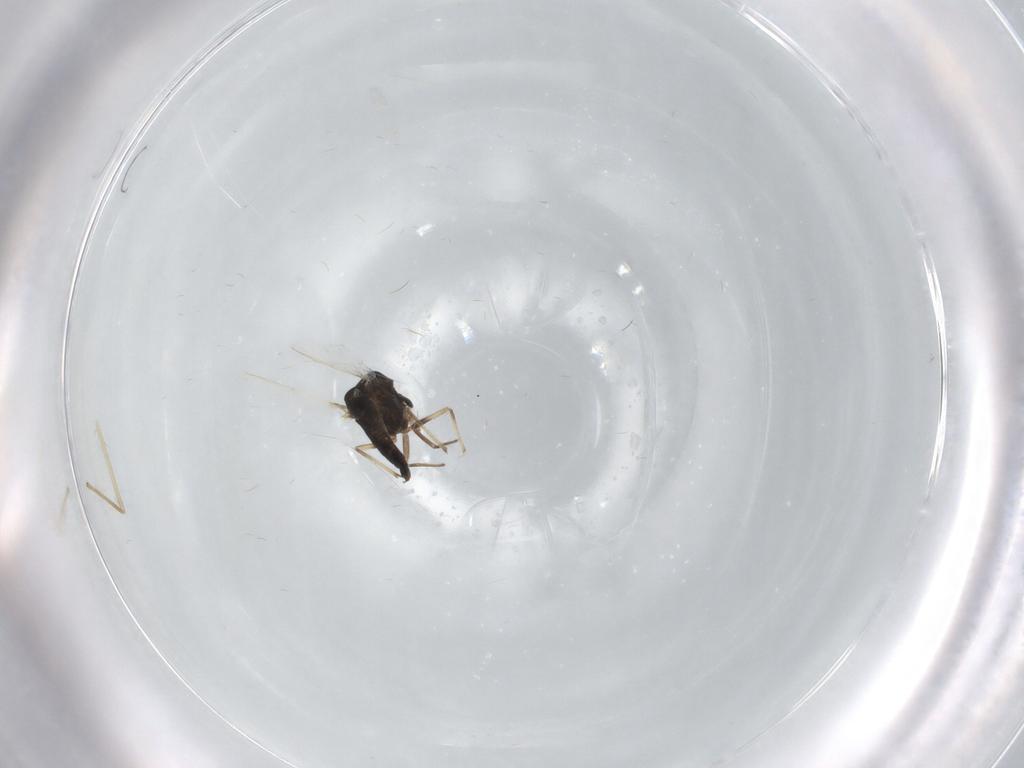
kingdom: Animalia
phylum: Arthropoda
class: Insecta
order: Diptera
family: Chironomidae
